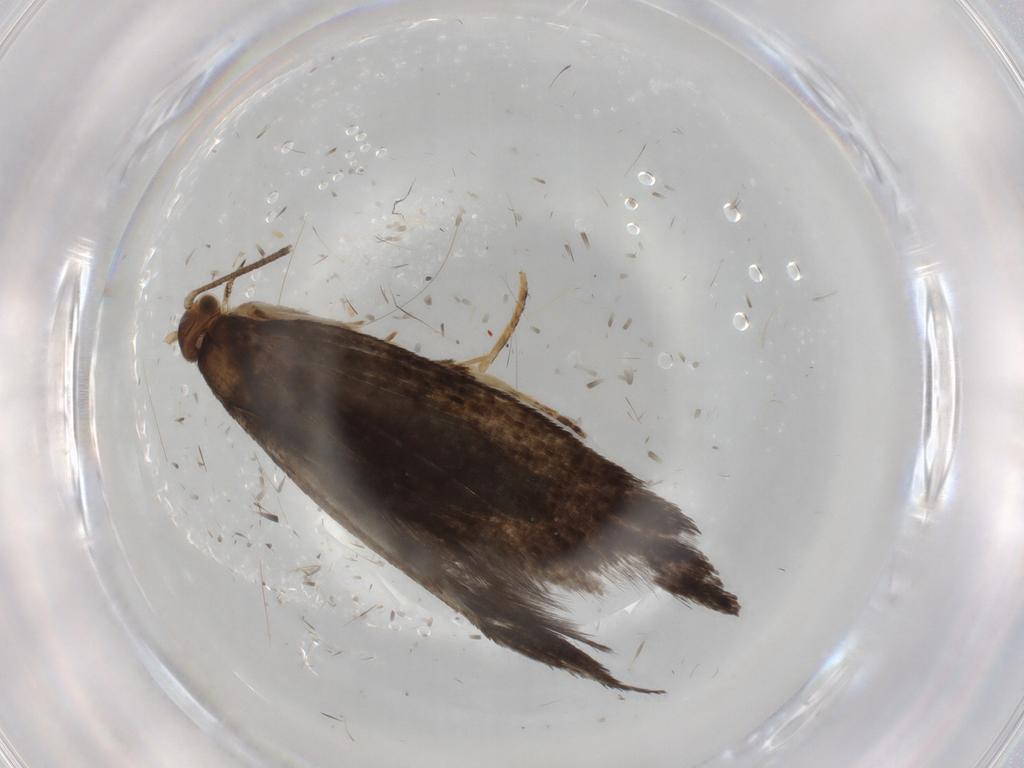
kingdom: Animalia
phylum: Arthropoda
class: Insecta
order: Lepidoptera
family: Tineidae
